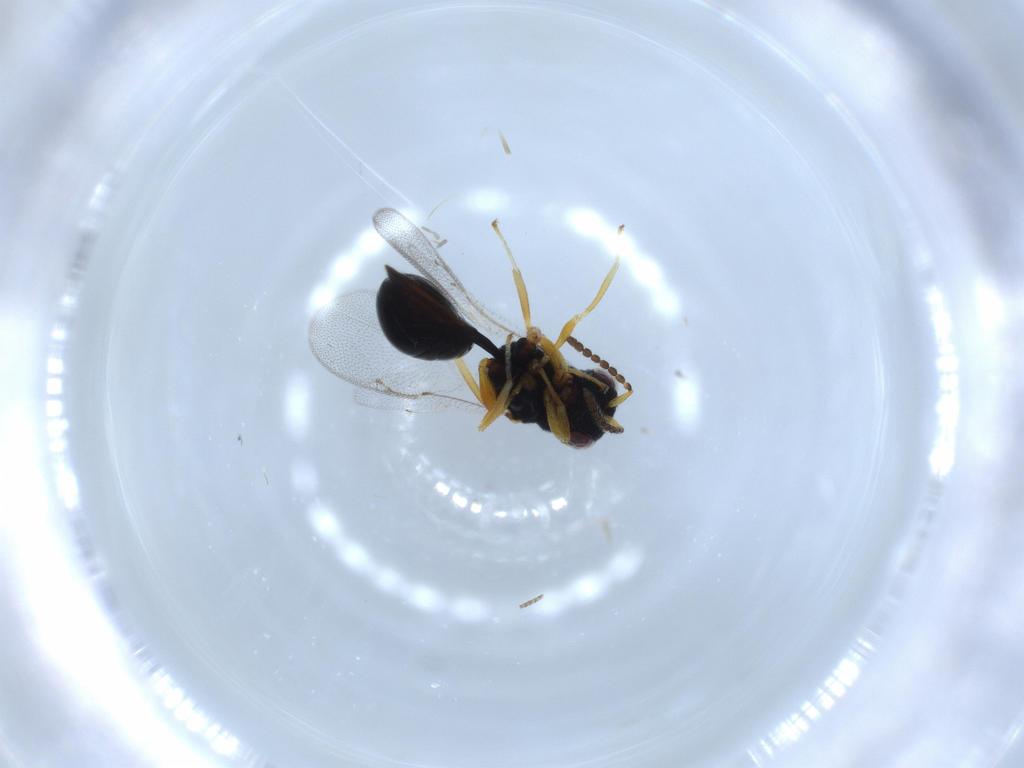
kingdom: Animalia
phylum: Arthropoda
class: Insecta
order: Hymenoptera
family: Eurytomidae
